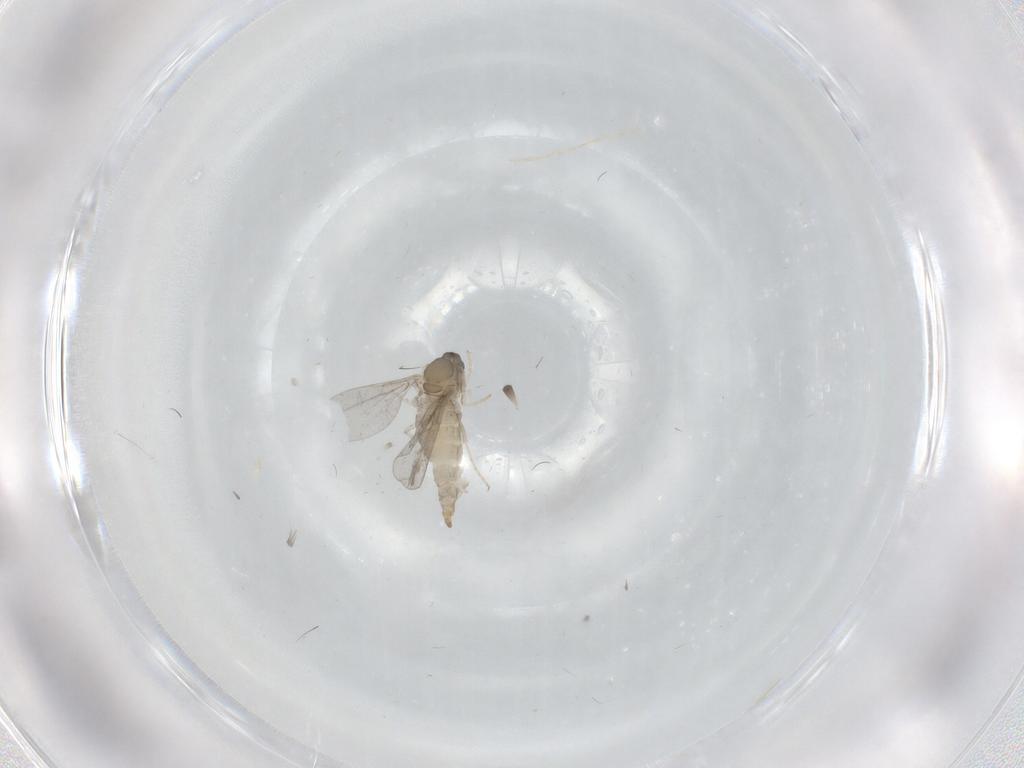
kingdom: Animalia
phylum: Arthropoda
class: Insecta
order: Diptera
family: Cecidomyiidae
